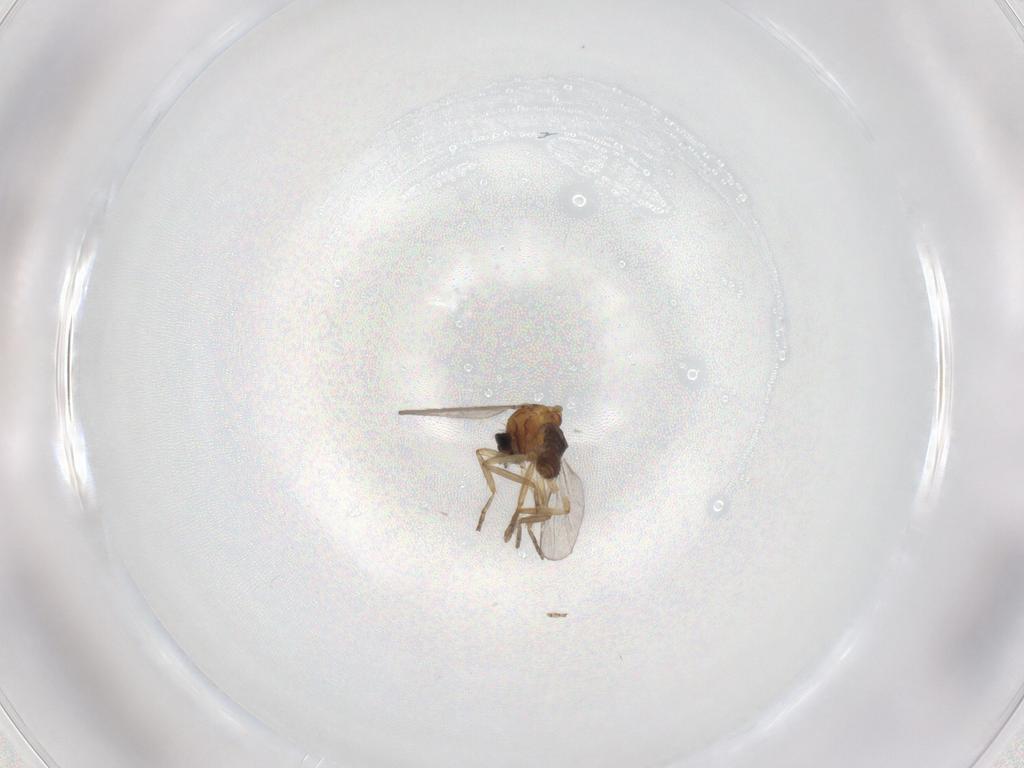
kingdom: Animalia
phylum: Arthropoda
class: Insecta
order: Diptera
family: Ceratopogonidae
